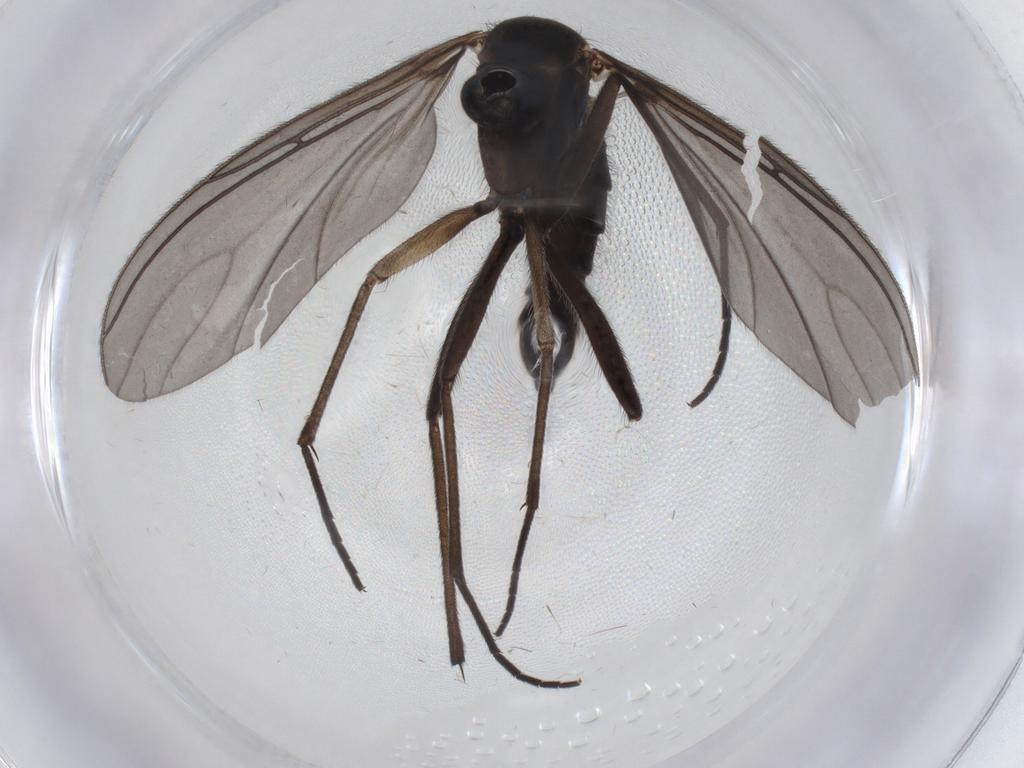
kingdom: Animalia
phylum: Arthropoda
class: Insecta
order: Diptera
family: Sciaridae
